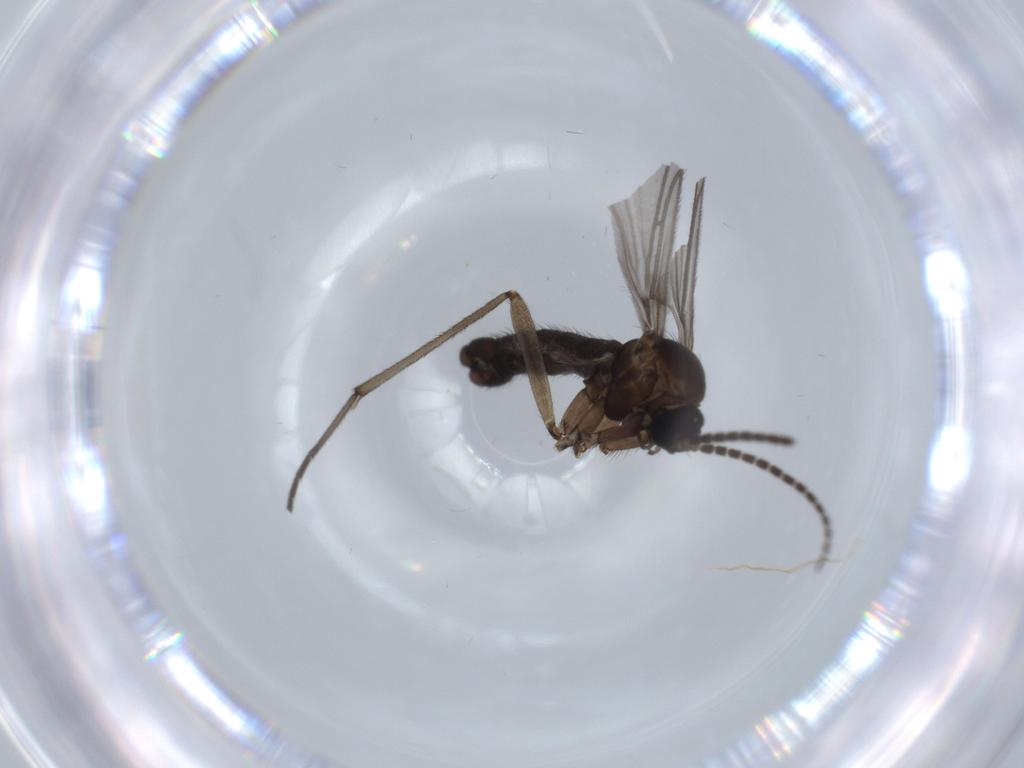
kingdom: Animalia
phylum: Arthropoda
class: Insecta
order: Diptera
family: Sciaridae
